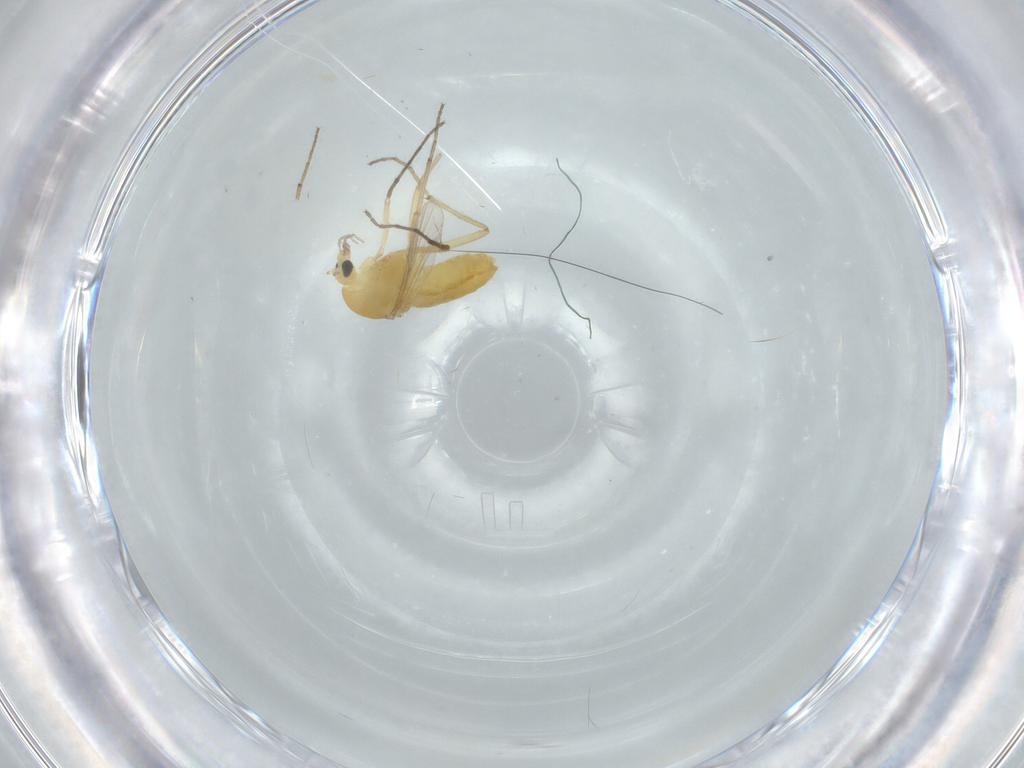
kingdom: Animalia
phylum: Arthropoda
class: Insecta
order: Diptera
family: Chironomidae
